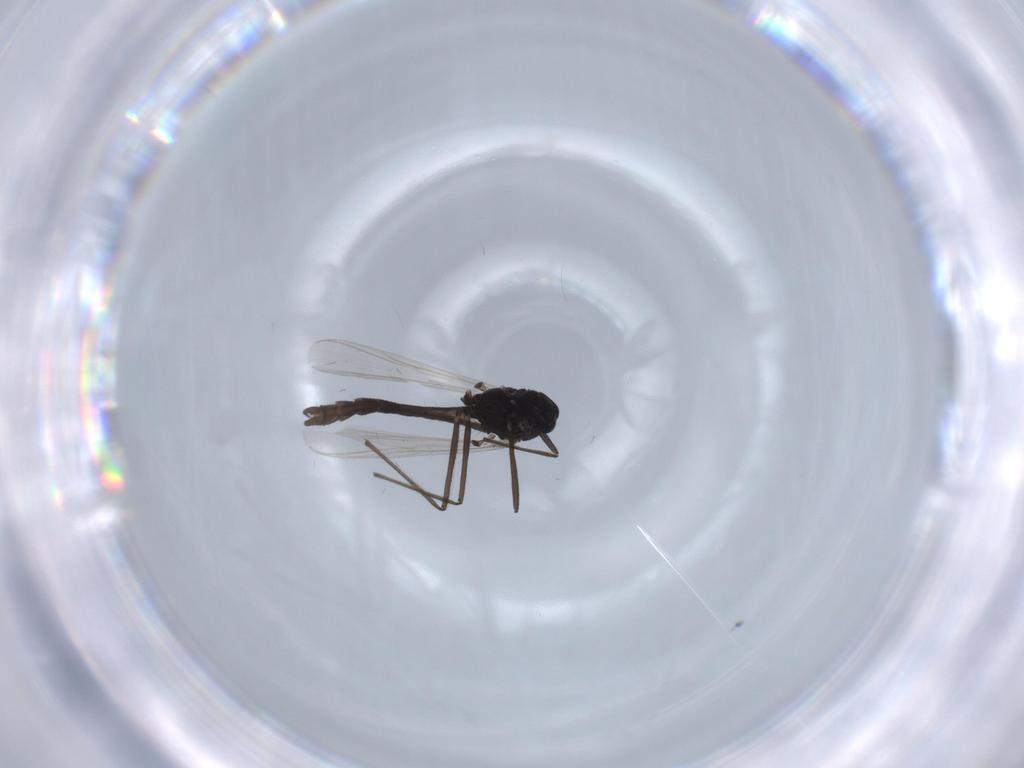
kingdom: Animalia
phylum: Arthropoda
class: Insecta
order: Diptera
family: Chironomidae
